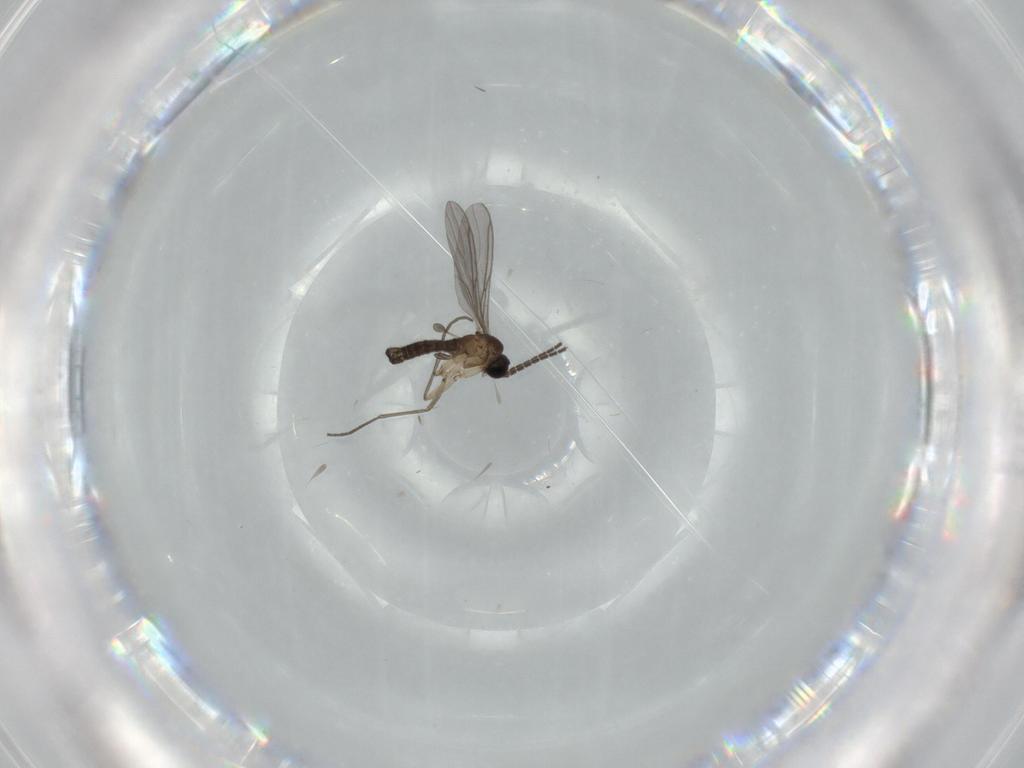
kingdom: Animalia
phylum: Arthropoda
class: Insecta
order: Diptera
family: Sciaridae
